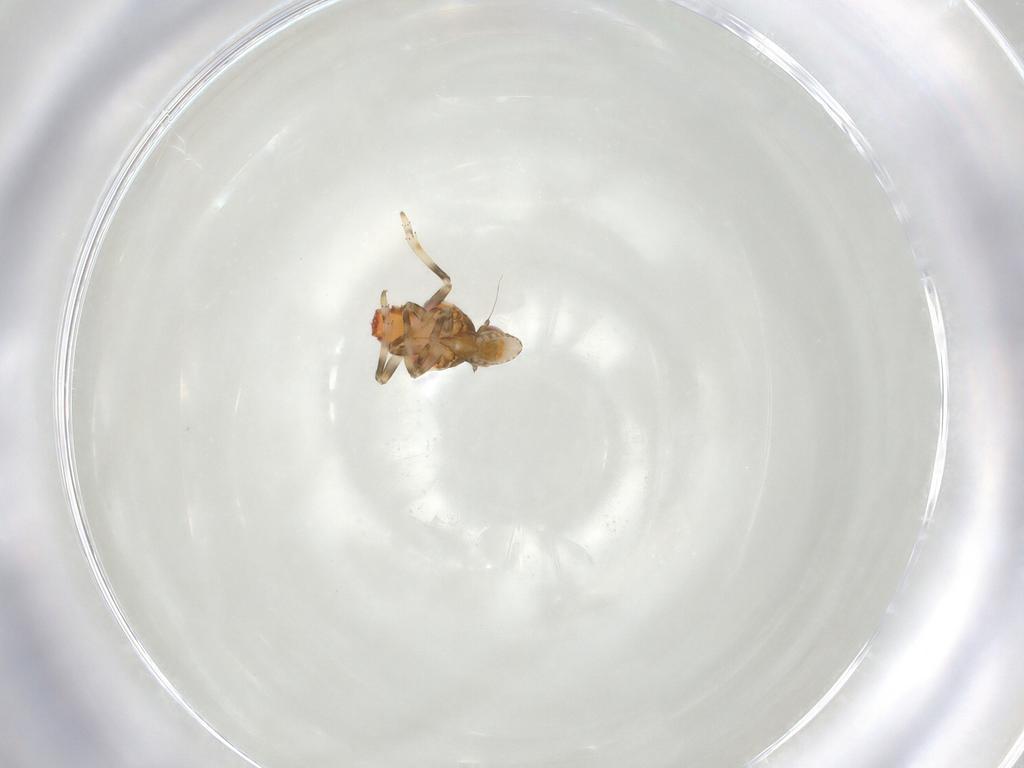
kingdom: Animalia
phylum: Arthropoda
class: Insecta
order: Hemiptera
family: Tropiduchidae
